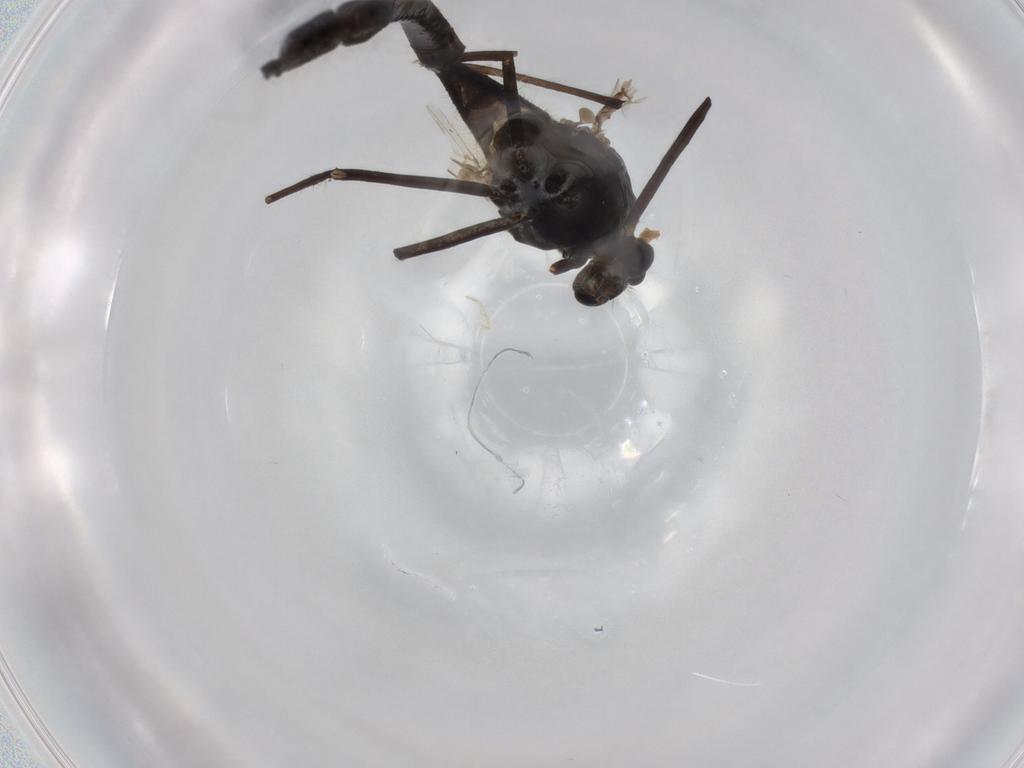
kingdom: Animalia
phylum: Arthropoda
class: Insecta
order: Diptera
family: Chironomidae
